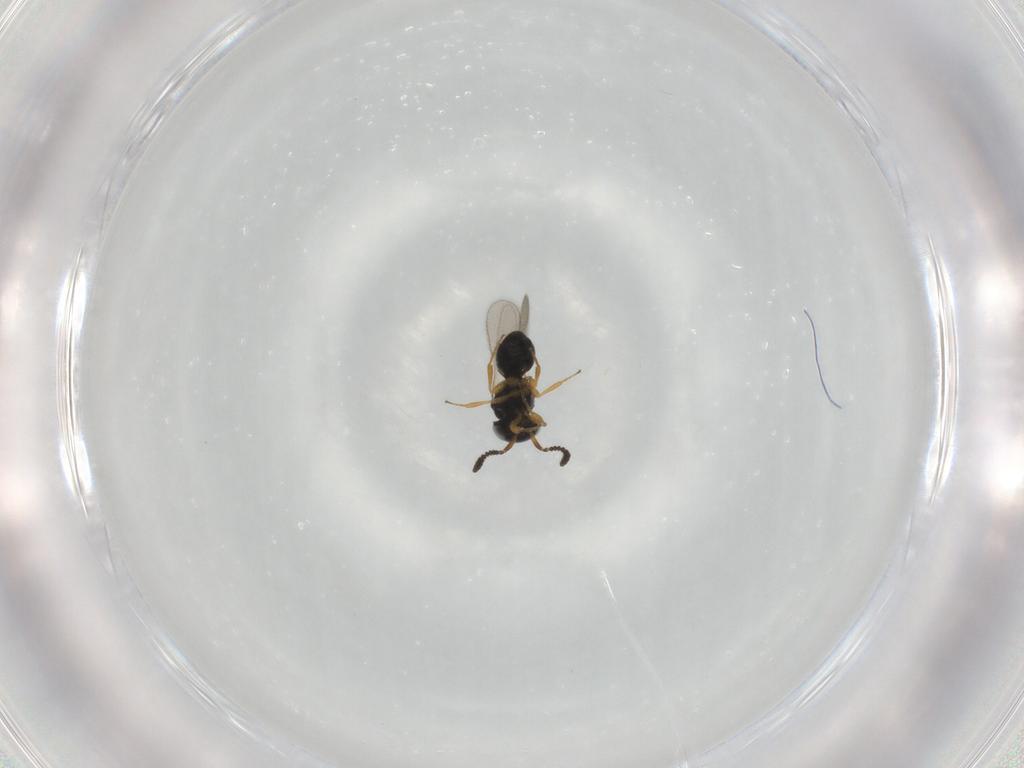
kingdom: Animalia
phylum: Arthropoda
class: Insecta
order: Hymenoptera
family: Scelionidae
